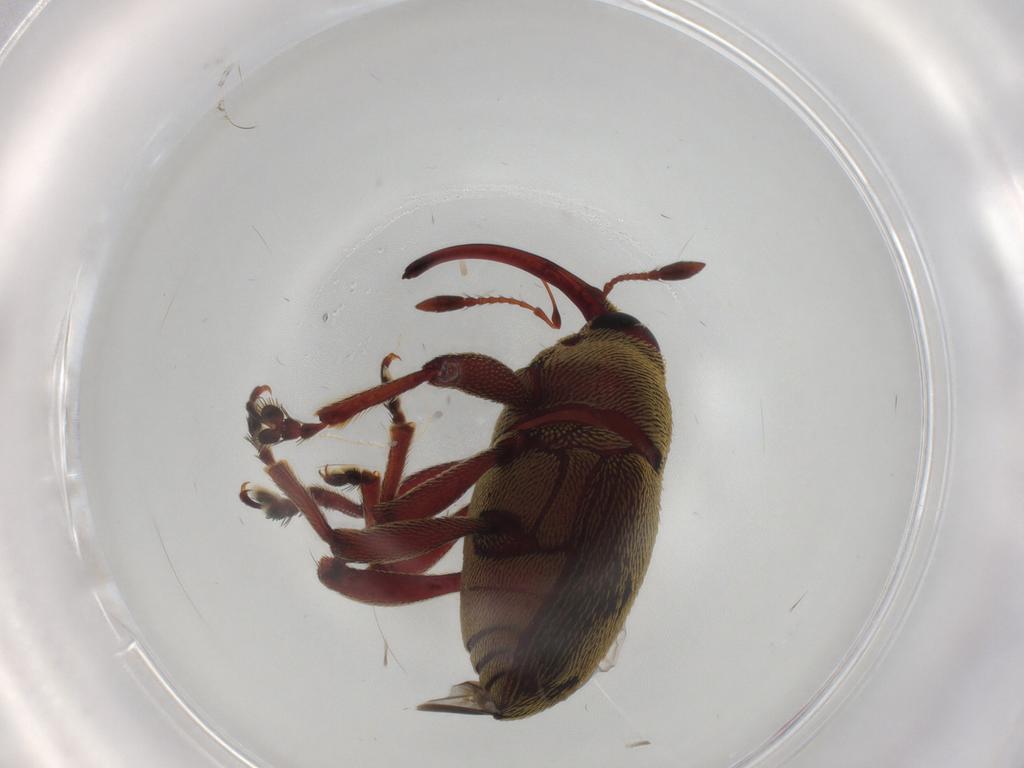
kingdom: Animalia
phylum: Arthropoda
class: Insecta
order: Coleoptera
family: Curculionidae
